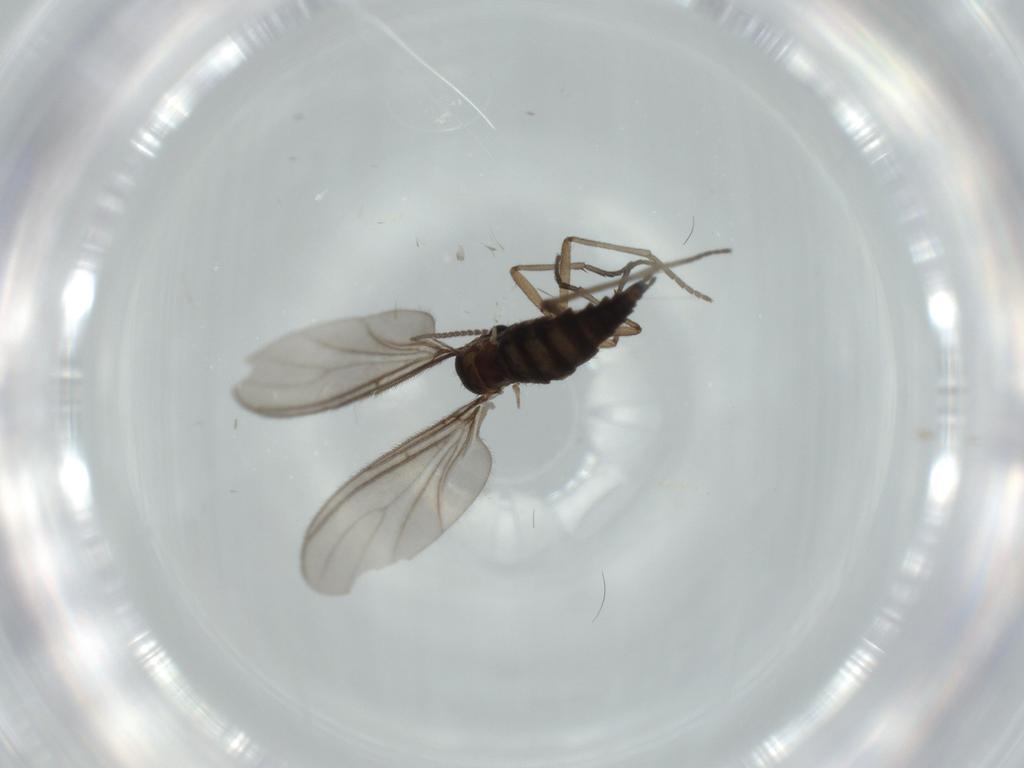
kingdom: Animalia
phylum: Arthropoda
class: Insecta
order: Diptera
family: Sciaridae
